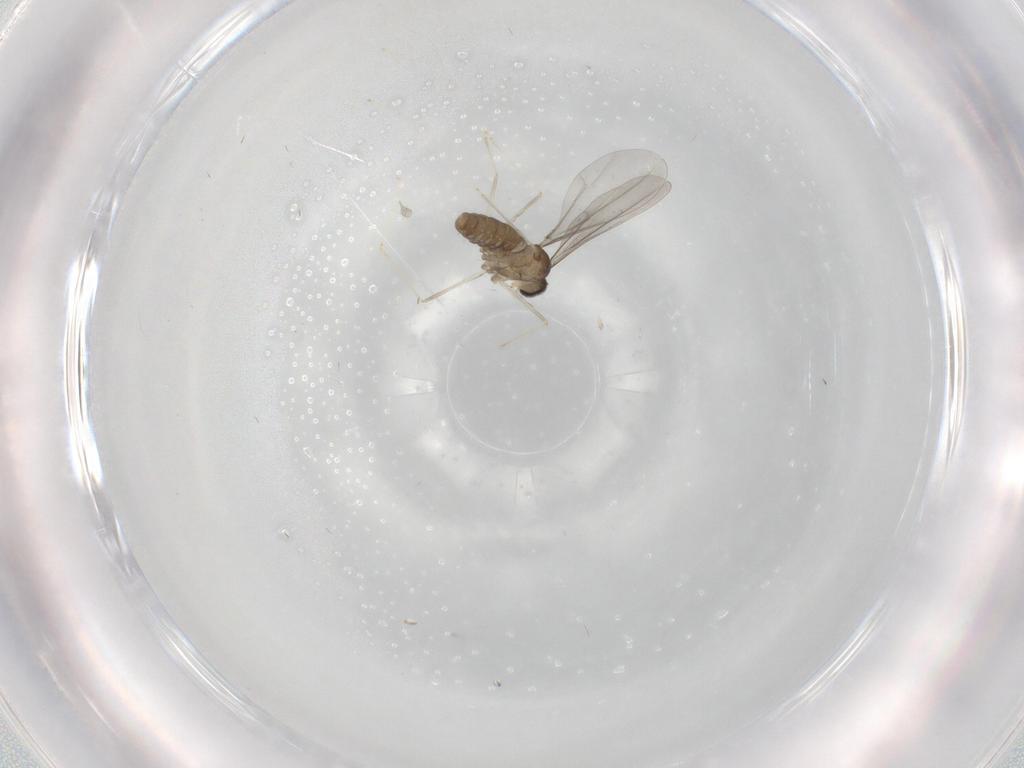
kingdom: Animalia
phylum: Arthropoda
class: Insecta
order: Diptera
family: Cecidomyiidae
